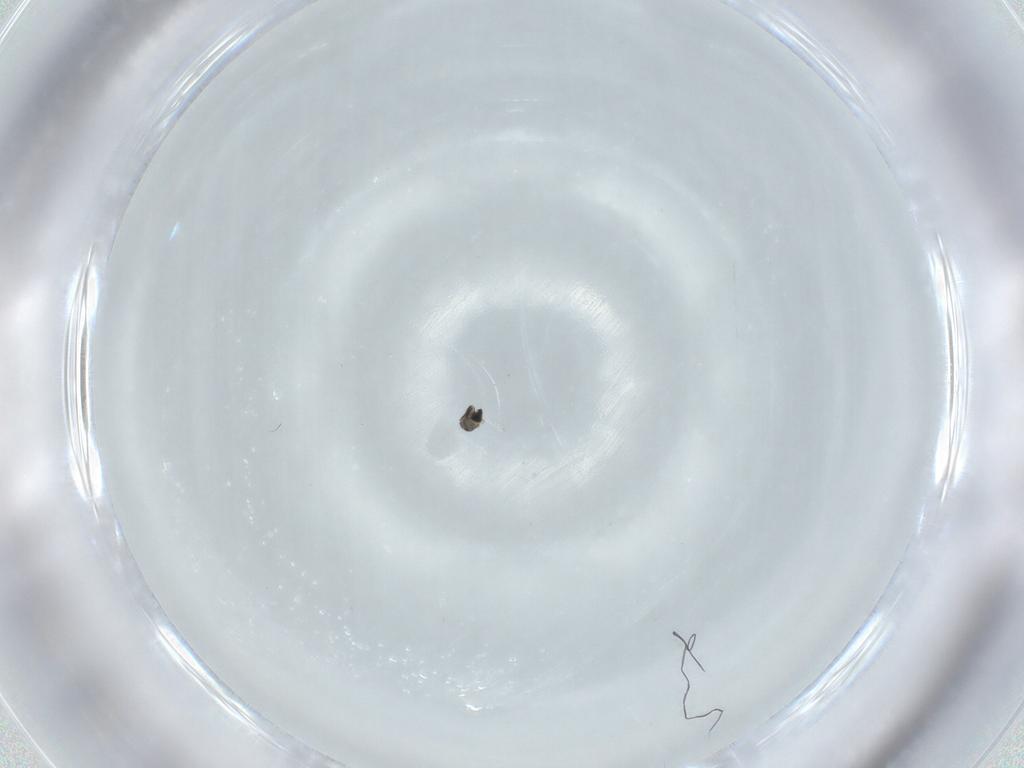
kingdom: Animalia
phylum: Arthropoda
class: Insecta
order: Diptera
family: Cecidomyiidae
